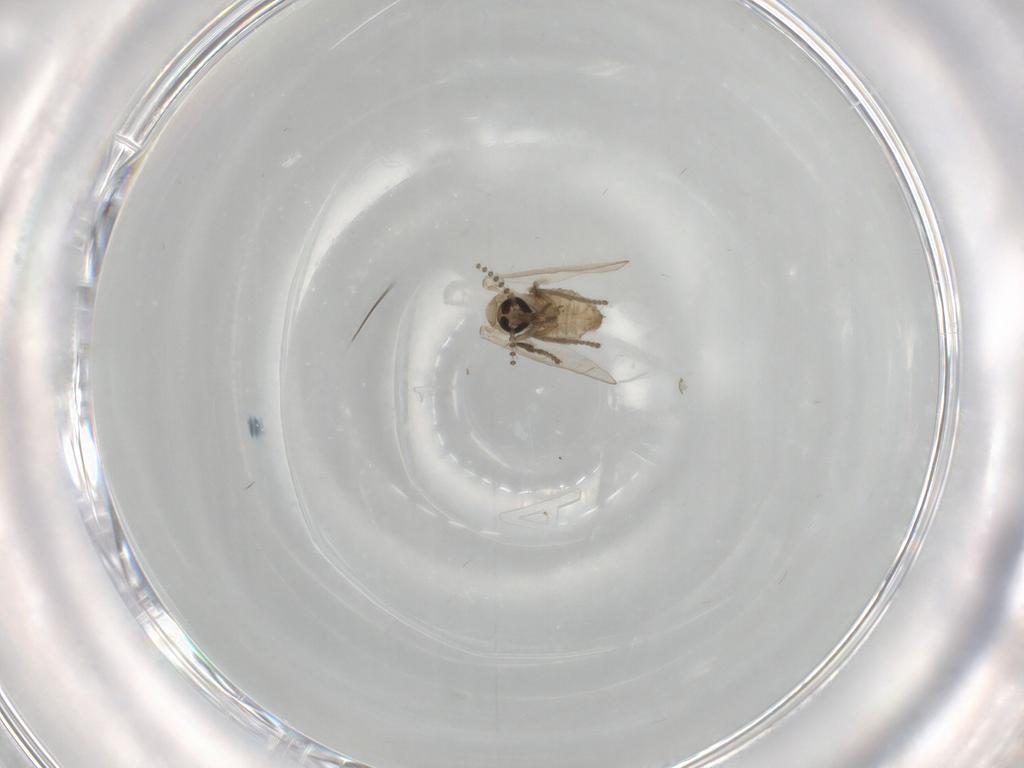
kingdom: Animalia
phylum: Arthropoda
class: Insecta
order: Diptera
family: Psychodidae
